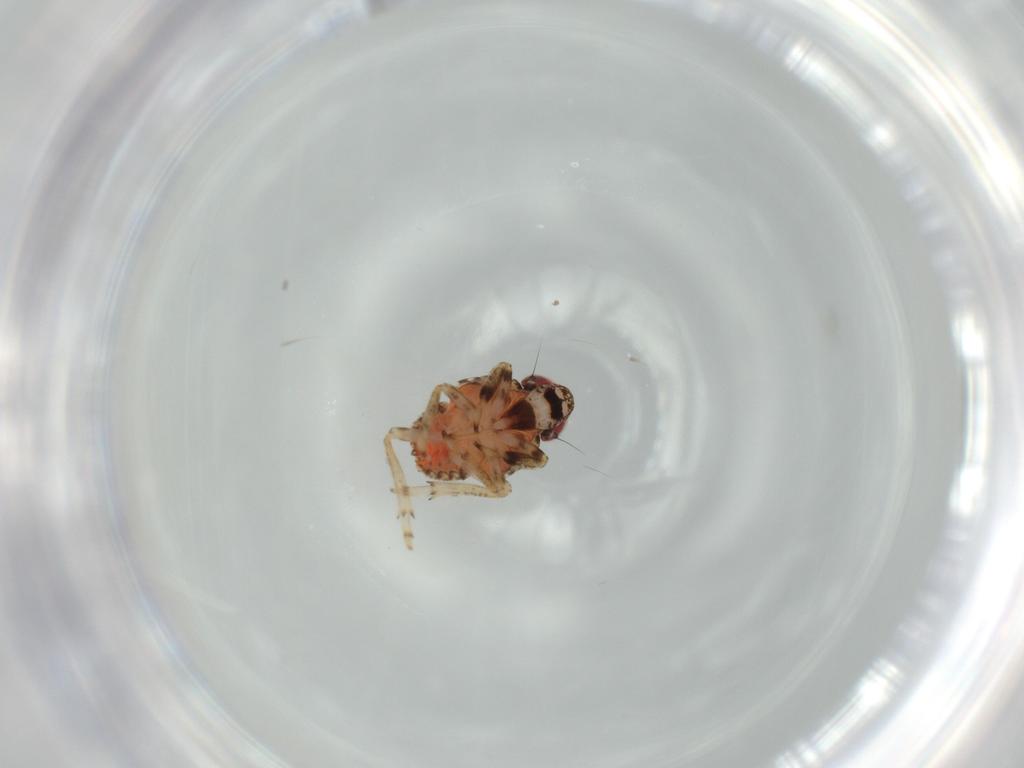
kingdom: Animalia
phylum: Arthropoda
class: Insecta
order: Hemiptera
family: Issidae
